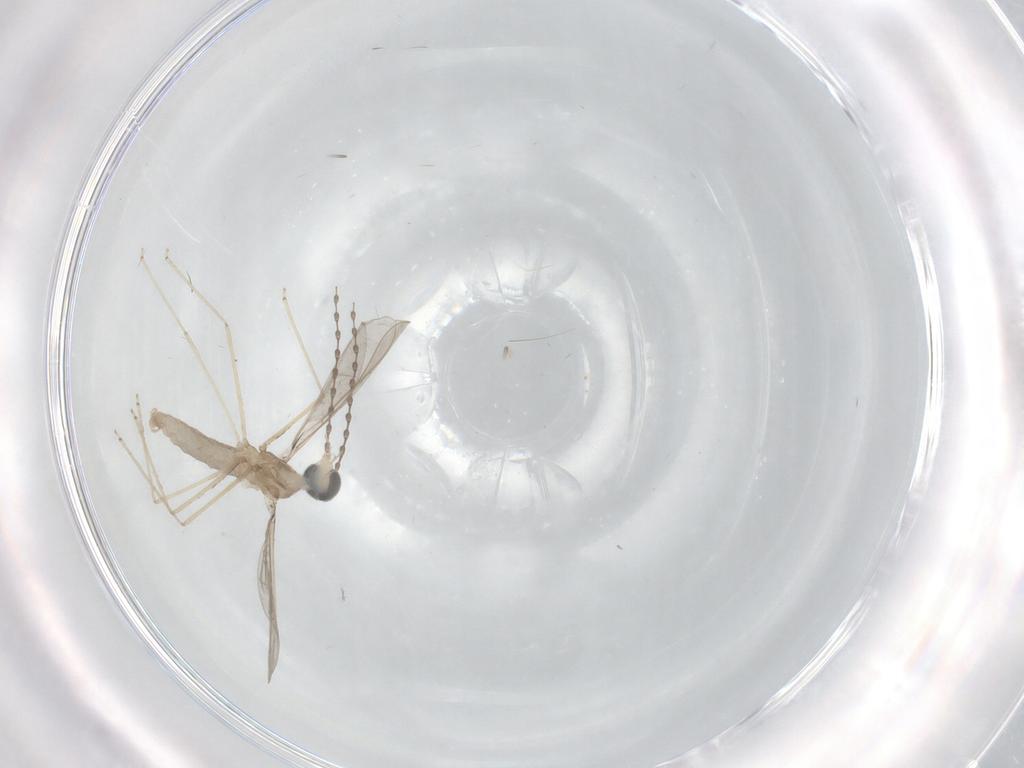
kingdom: Animalia
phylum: Arthropoda
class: Insecta
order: Diptera
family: Cecidomyiidae
